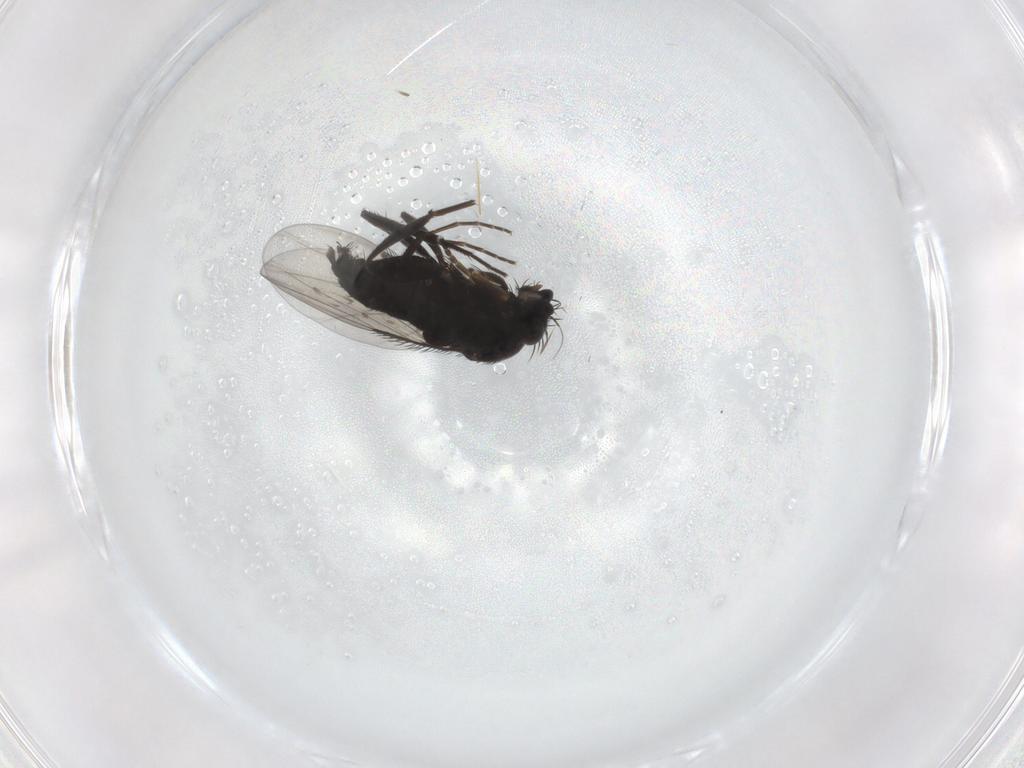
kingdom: Animalia
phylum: Arthropoda
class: Insecta
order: Diptera
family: Phoridae
